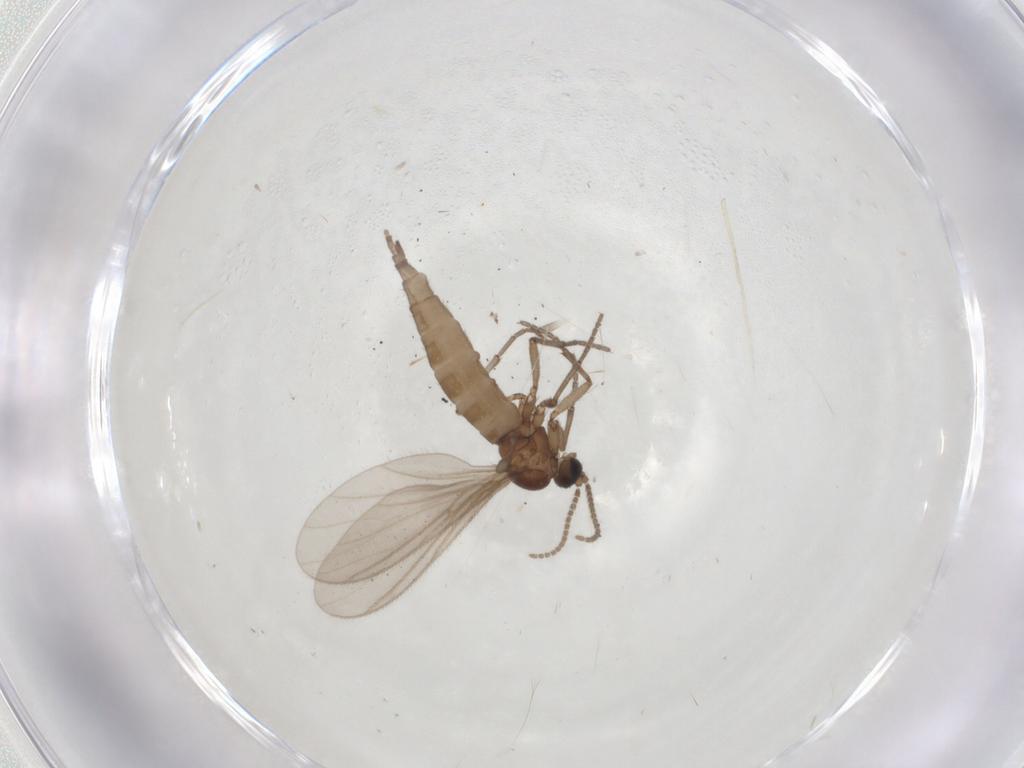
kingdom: Animalia
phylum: Arthropoda
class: Insecta
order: Diptera
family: Sciaridae
